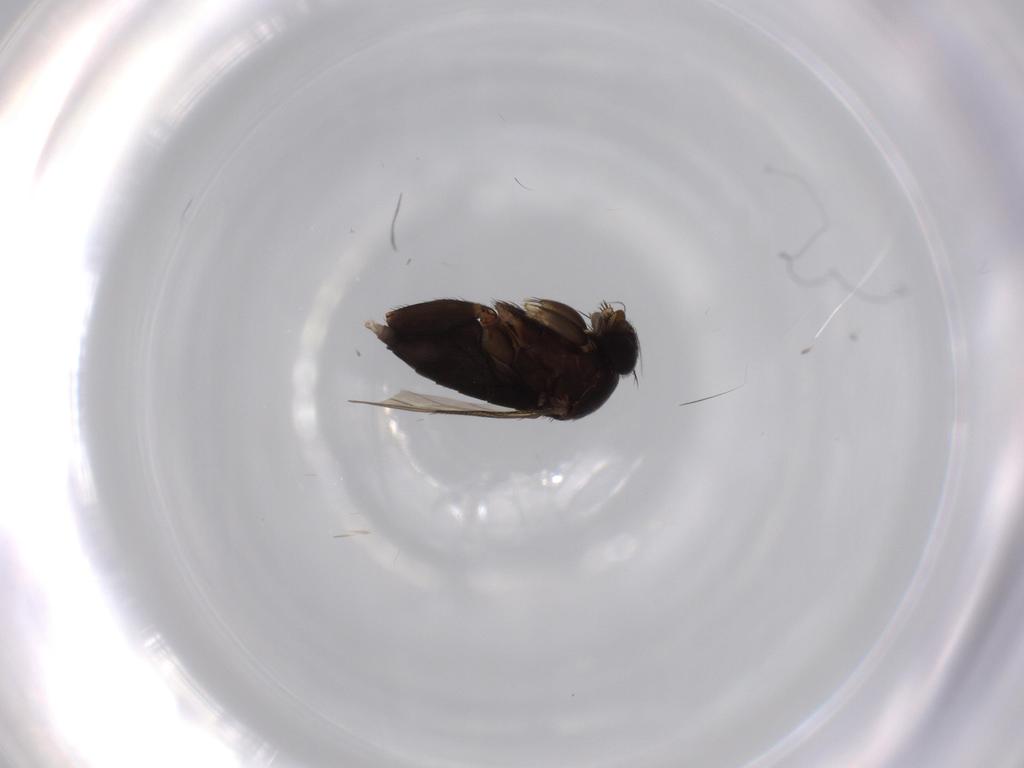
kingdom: Animalia
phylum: Arthropoda
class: Insecta
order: Diptera
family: Phoridae
